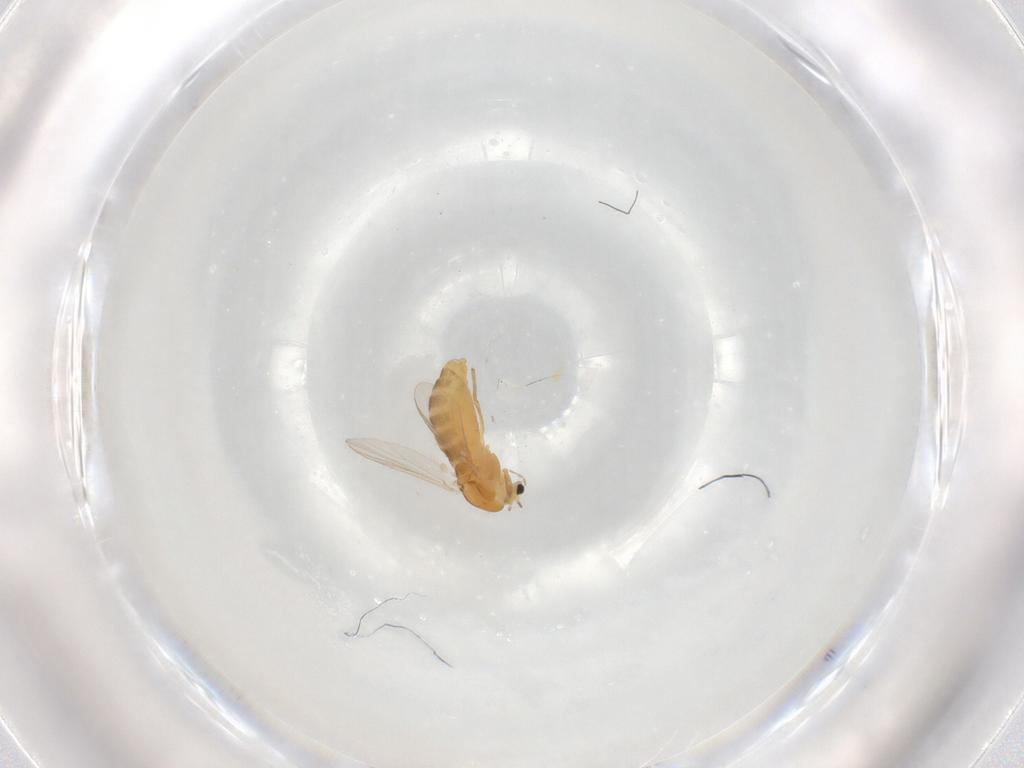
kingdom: Animalia
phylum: Arthropoda
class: Insecta
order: Diptera
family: Chironomidae
